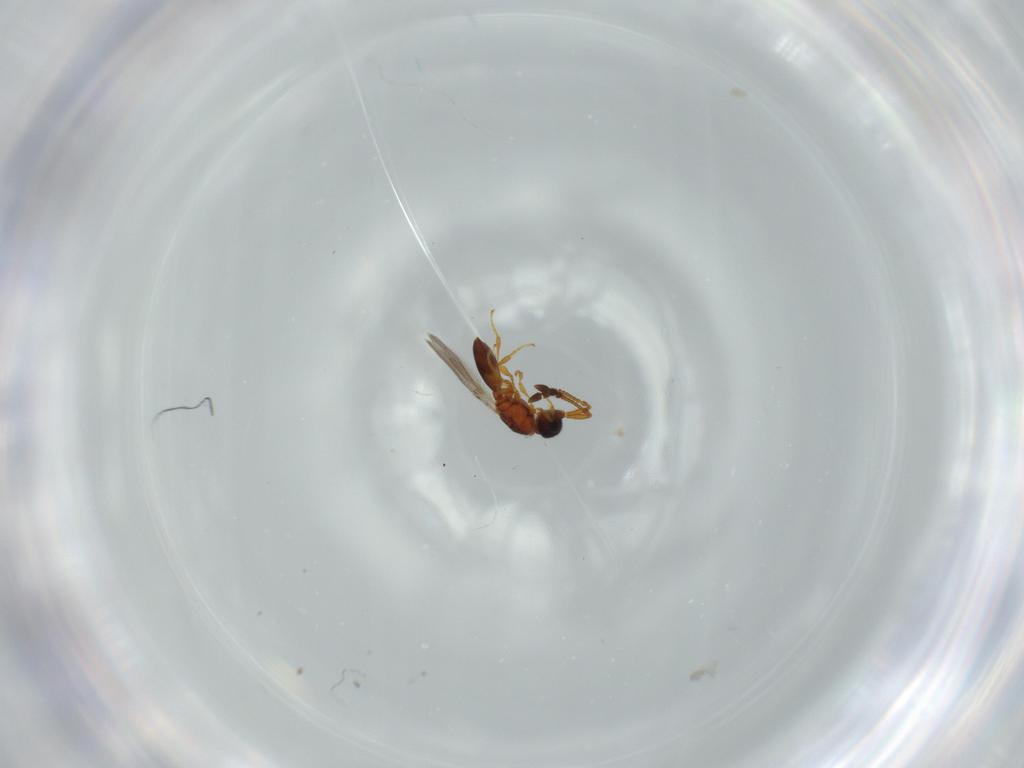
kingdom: Animalia
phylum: Arthropoda
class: Insecta
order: Hymenoptera
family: Diapriidae
